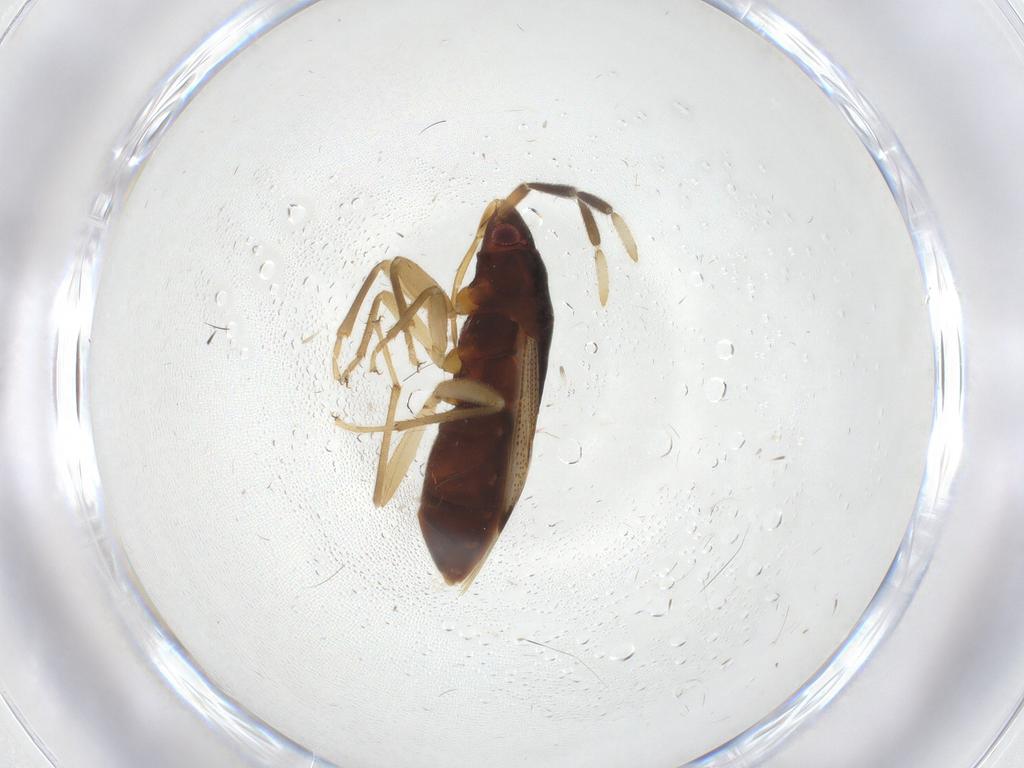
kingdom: Animalia
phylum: Arthropoda
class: Insecta
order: Hemiptera
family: Rhyparochromidae
